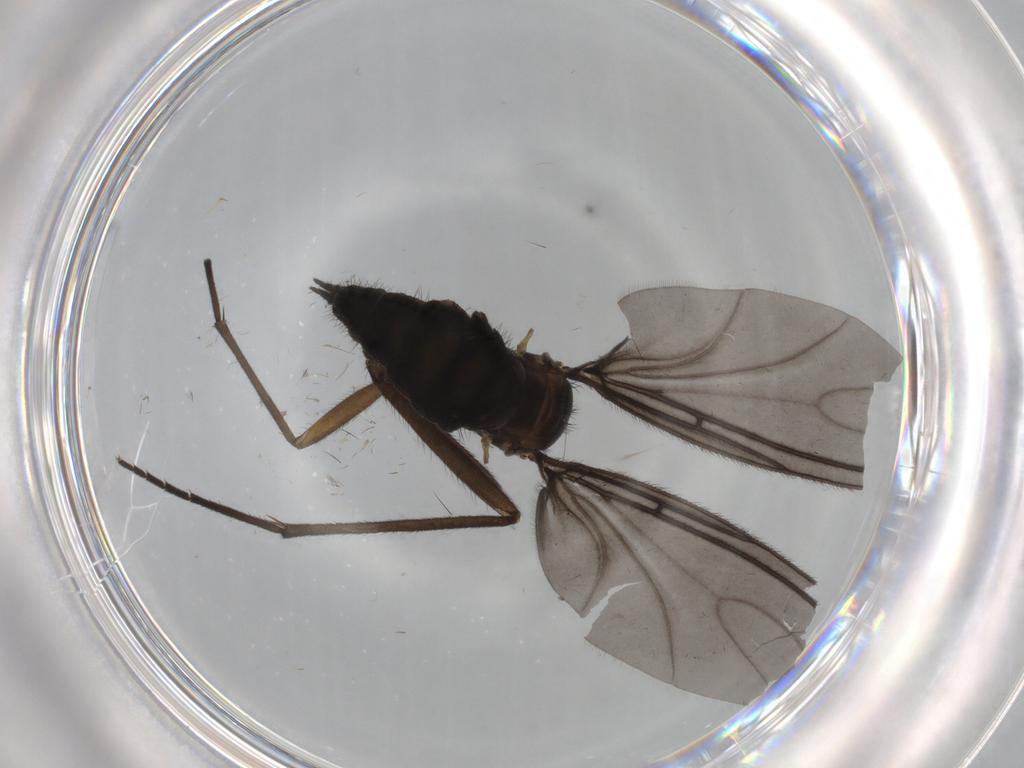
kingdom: Animalia
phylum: Arthropoda
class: Insecta
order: Diptera
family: Sciaridae
